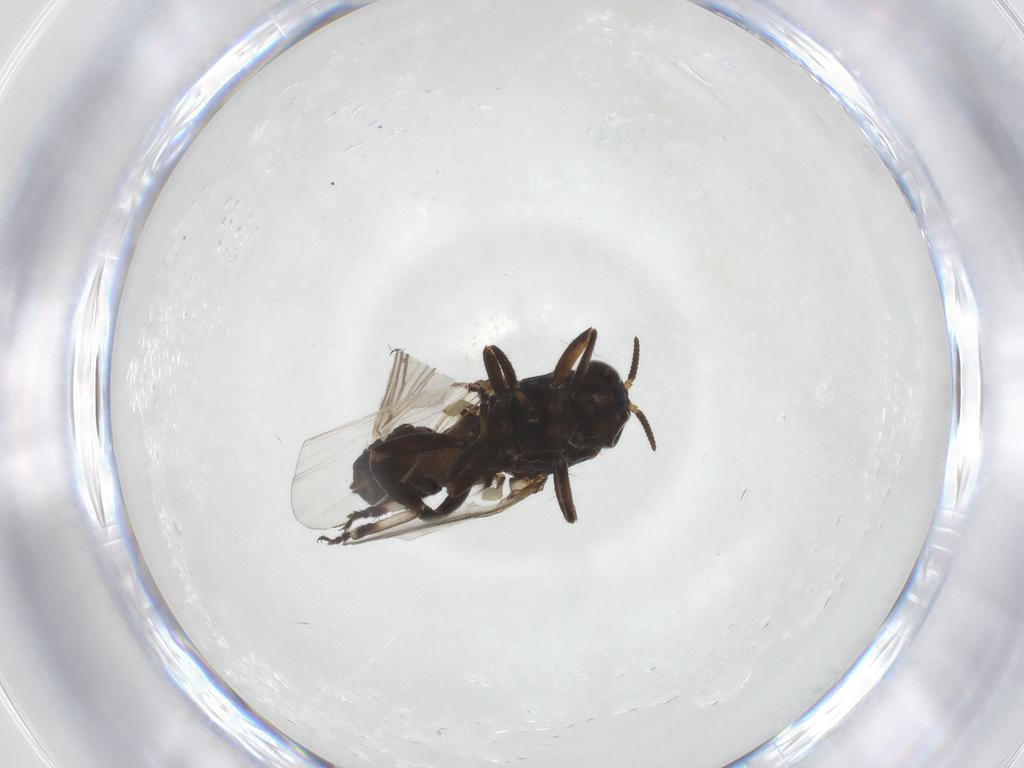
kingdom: Animalia
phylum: Arthropoda
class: Insecta
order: Diptera
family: Sciaridae
